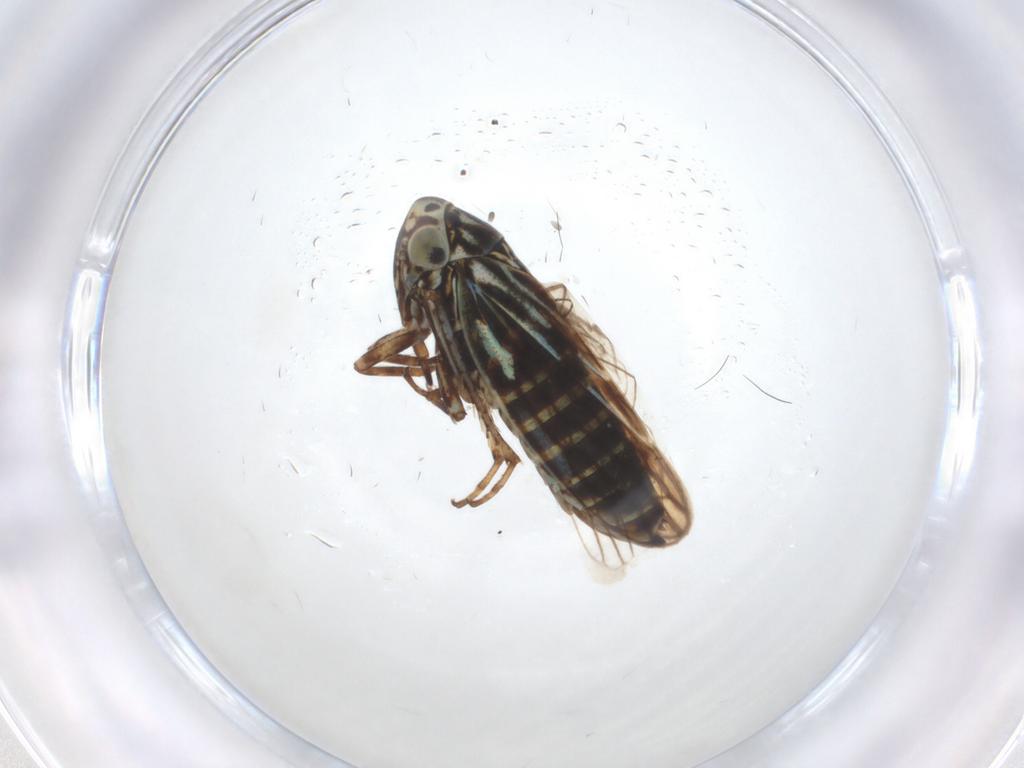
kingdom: Animalia
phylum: Arthropoda
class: Insecta
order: Hemiptera
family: Cicadellidae
